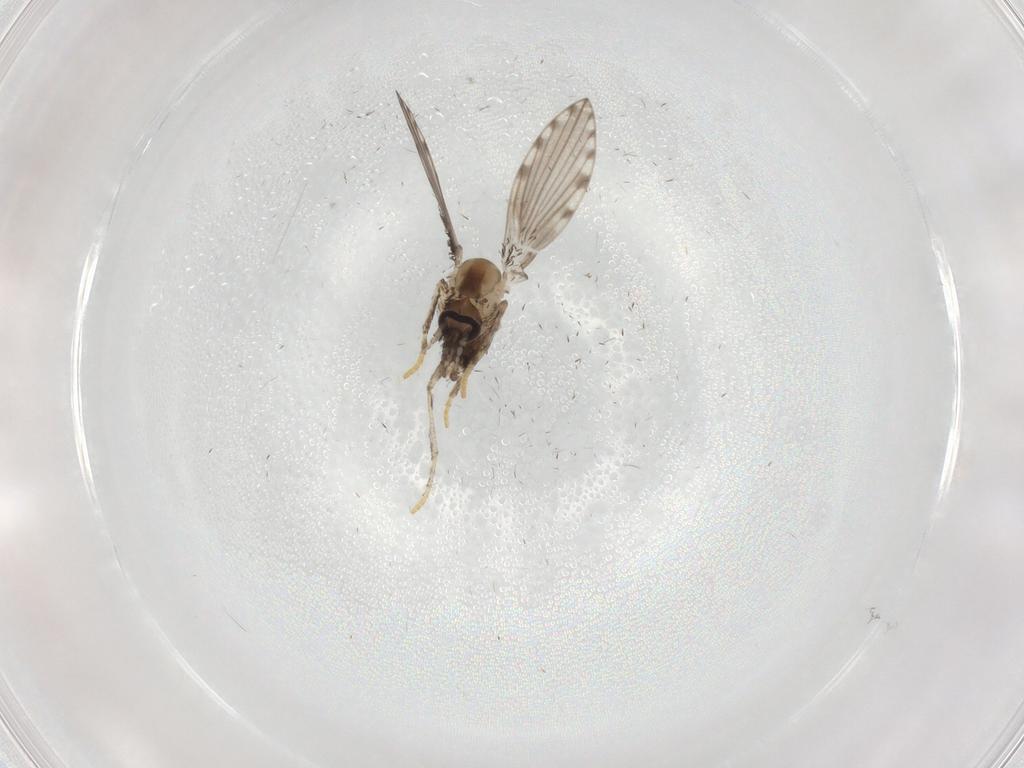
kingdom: Animalia
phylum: Arthropoda
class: Insecta
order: Diptera
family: Psychodidae
